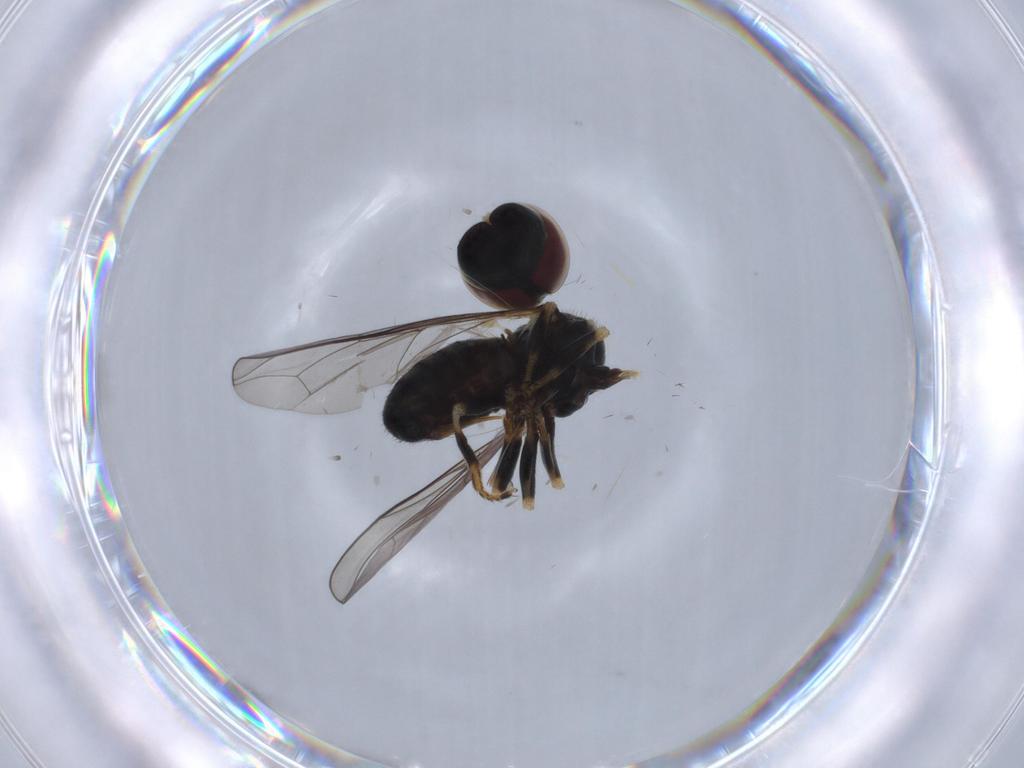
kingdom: Animalia
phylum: Arthropoda
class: Insecta
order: Diptera
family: Pipunculidae
